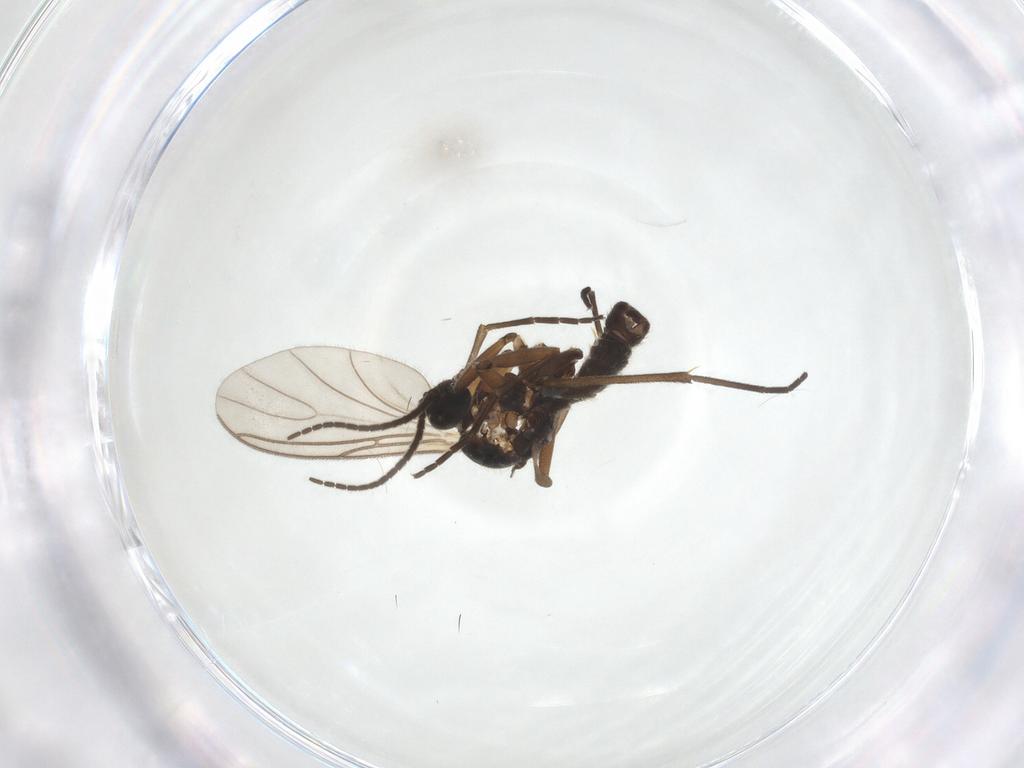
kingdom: Animalia
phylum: Arthropoda
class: Insecta
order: Diptera
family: Sciaridae
